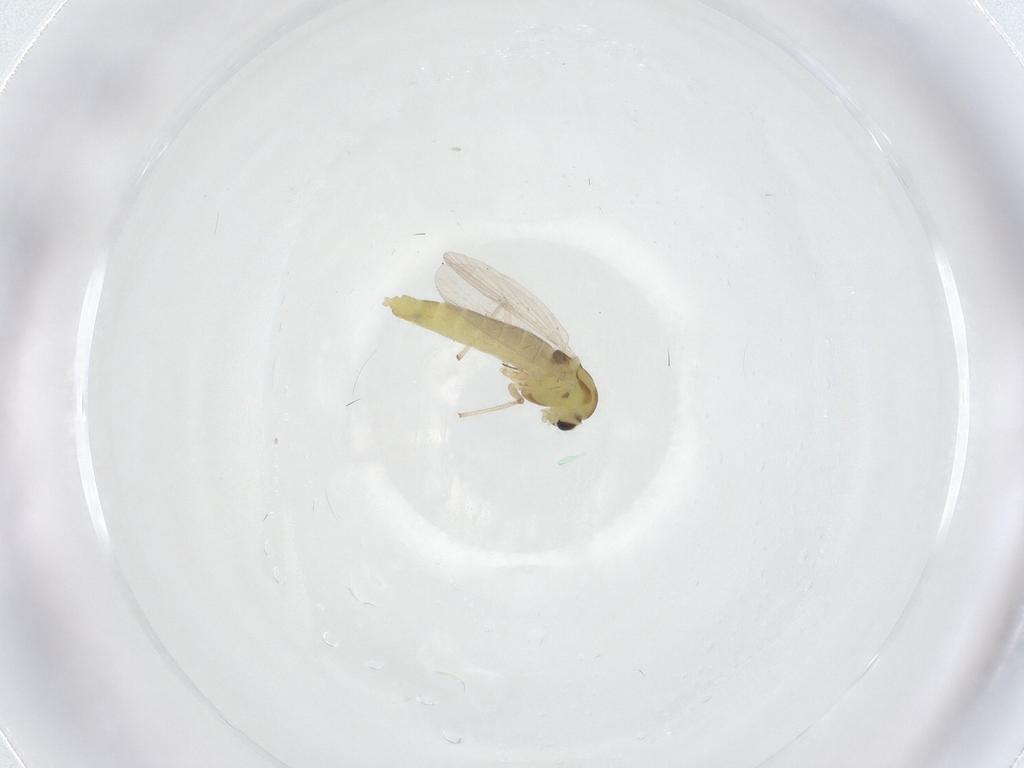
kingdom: Animalia
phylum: Arthropoda
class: Insecta
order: Diptera
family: Chironomidae
